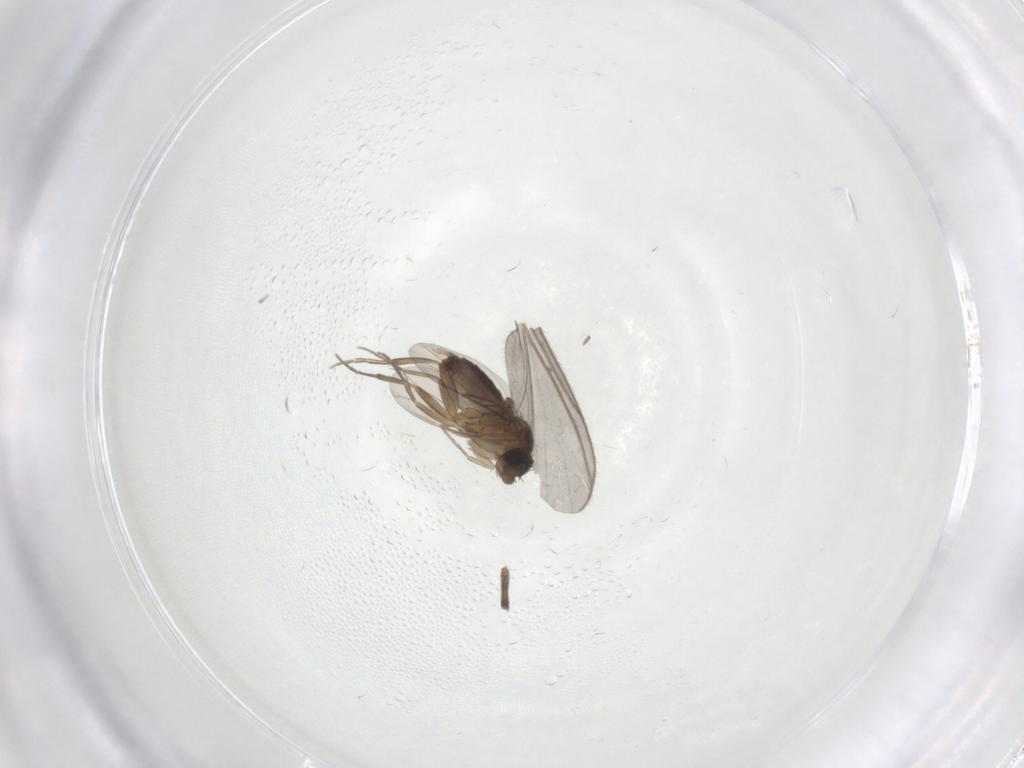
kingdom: Animalia
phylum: Arthropoda
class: Insecta
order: Diptera
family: Phoridae
